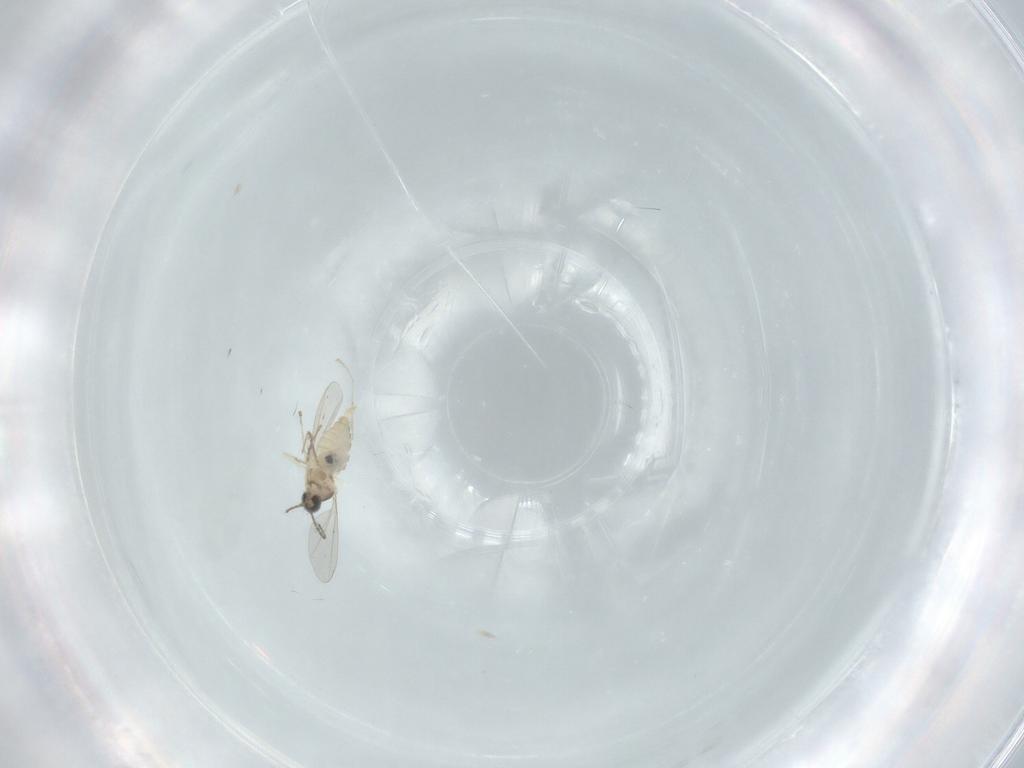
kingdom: Animalia
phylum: Arthropoda
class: Insecta
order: Diptera
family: Cecidomyiidae
